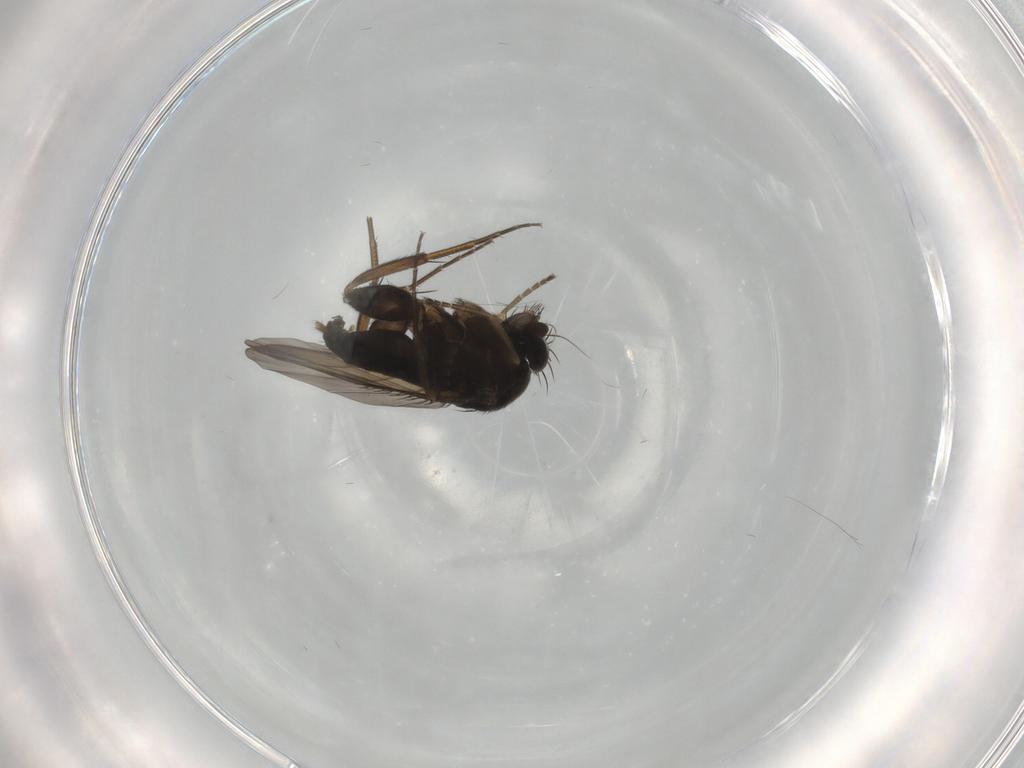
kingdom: Animalia
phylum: Arthropoda
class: Insecta
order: Diptera
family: Phoridae
